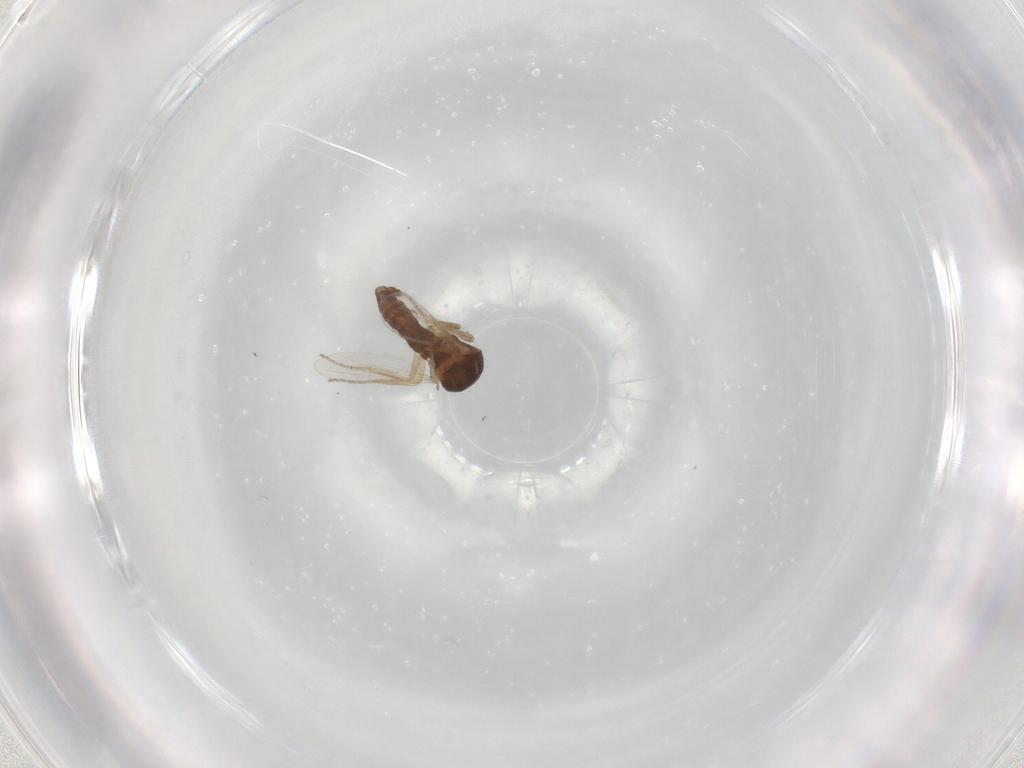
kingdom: Animalia
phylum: Arthropoda
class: Insecta
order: Diptera
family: Ceratopogonidae
